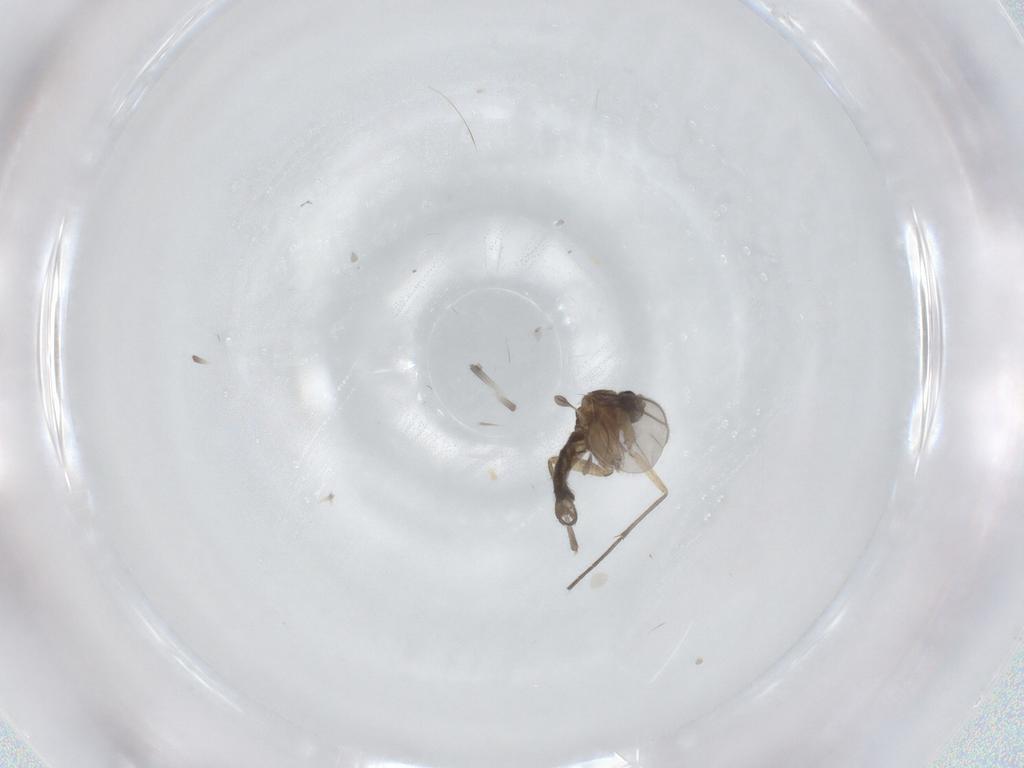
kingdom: Animalia
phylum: Arthropoda
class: Insecta
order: Diptera
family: Sciaridae
